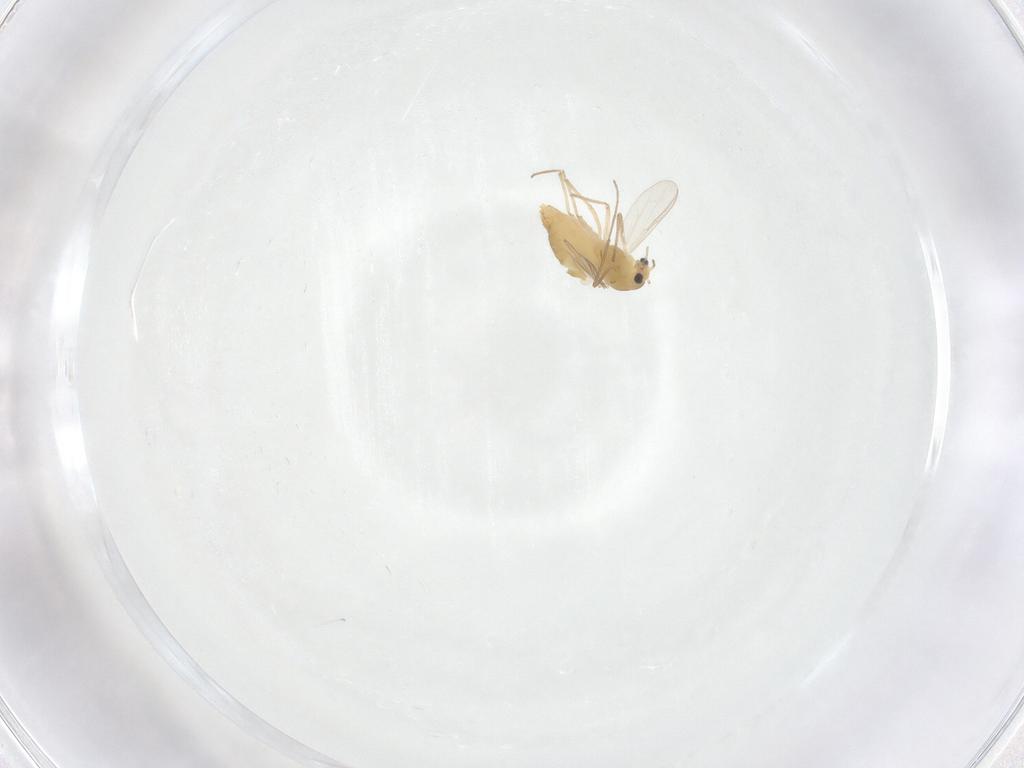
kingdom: Animalia
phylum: Arthropoda
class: Insecta
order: Diptera
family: Chironomidae
